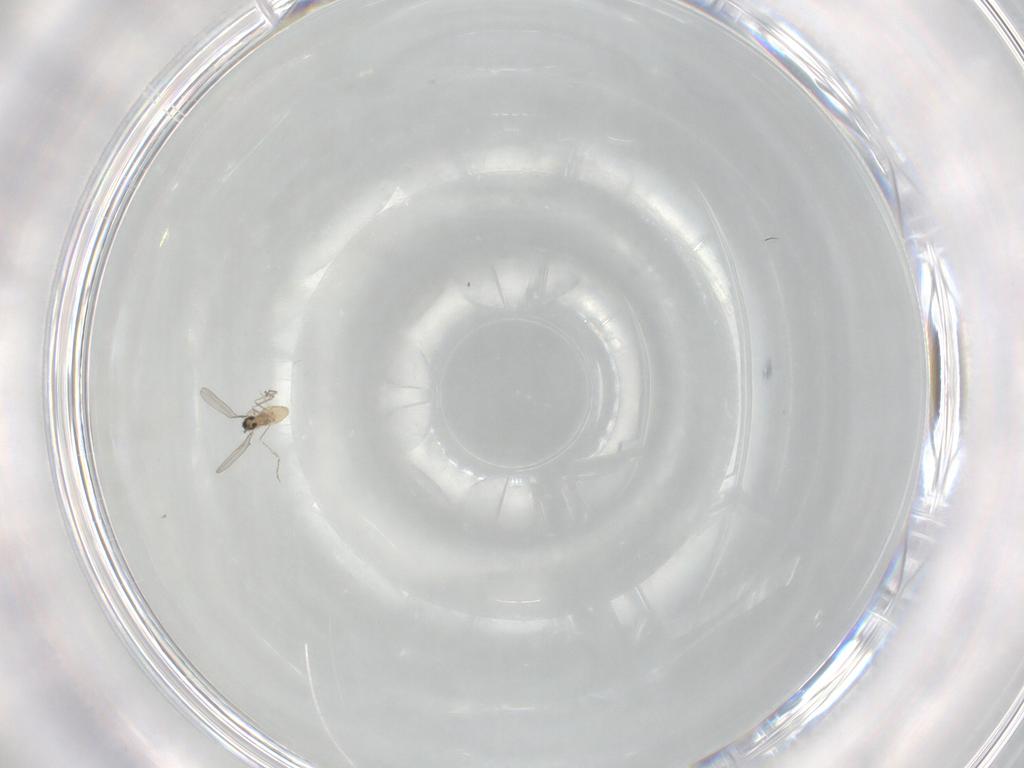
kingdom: Animalia
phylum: Arthropoda
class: Insecta
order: Diptera
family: Cecidomyiidae
